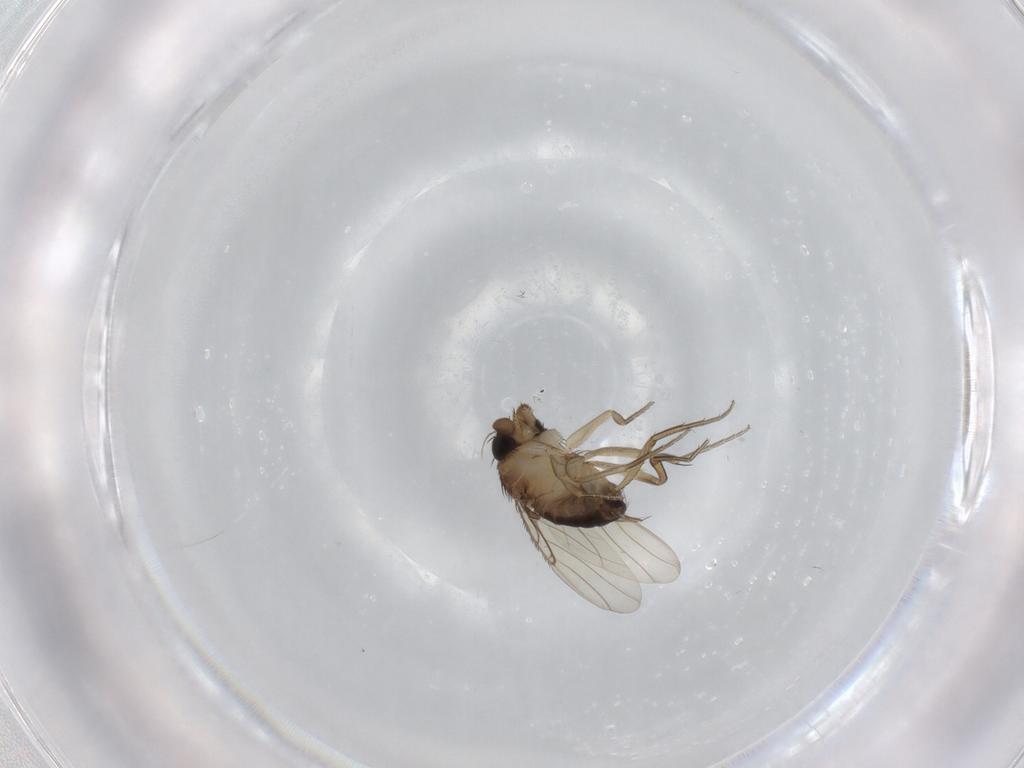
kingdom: Animalia
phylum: Arthropoda
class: Insecta
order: Diptera
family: Phoridae
